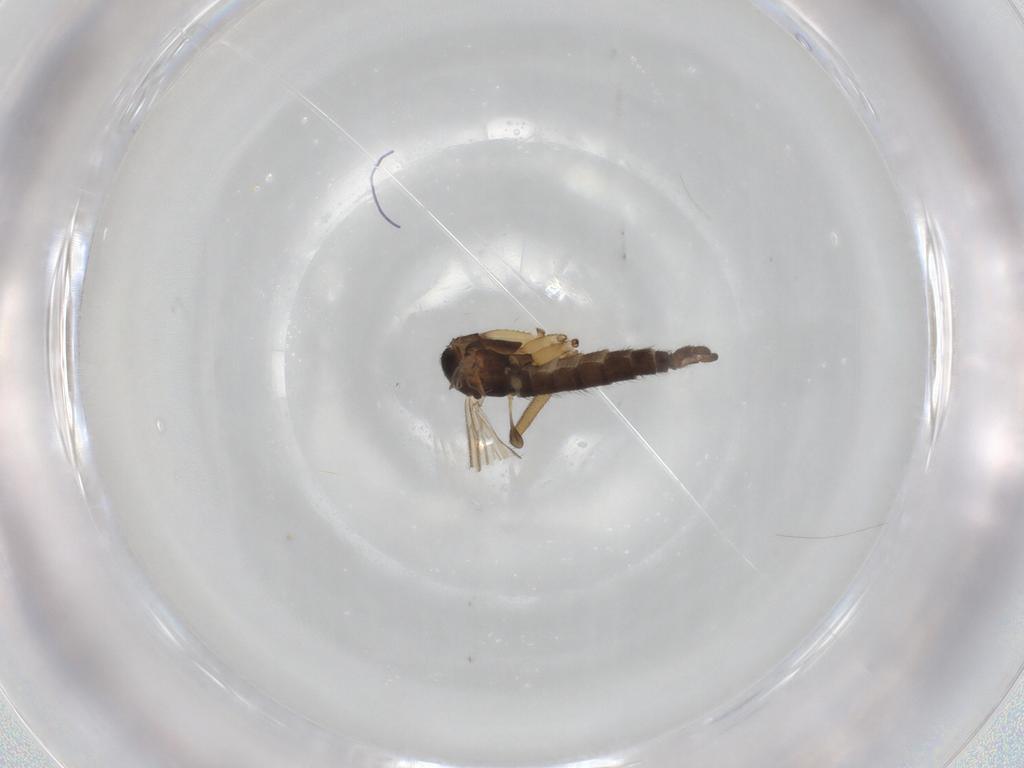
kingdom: Animalia
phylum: Arthropoda
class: Insecta
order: Diptera
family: Sciaridae
